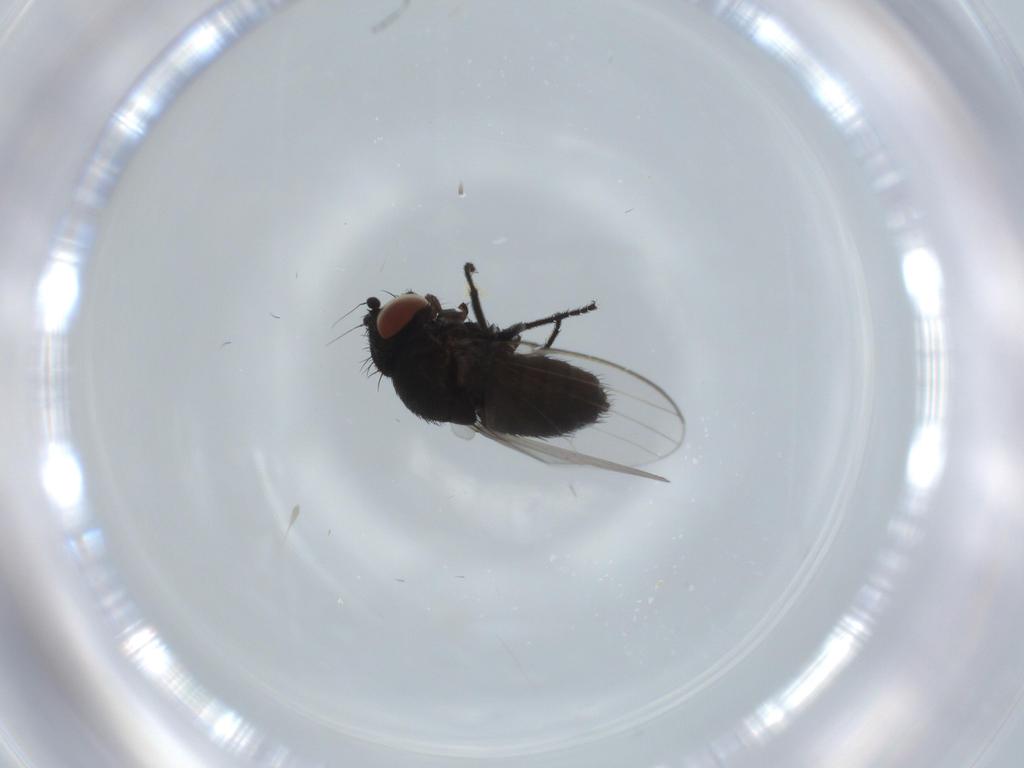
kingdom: Animalia
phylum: Arthropoda
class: Insecta
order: Diptera
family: Milichiidae
